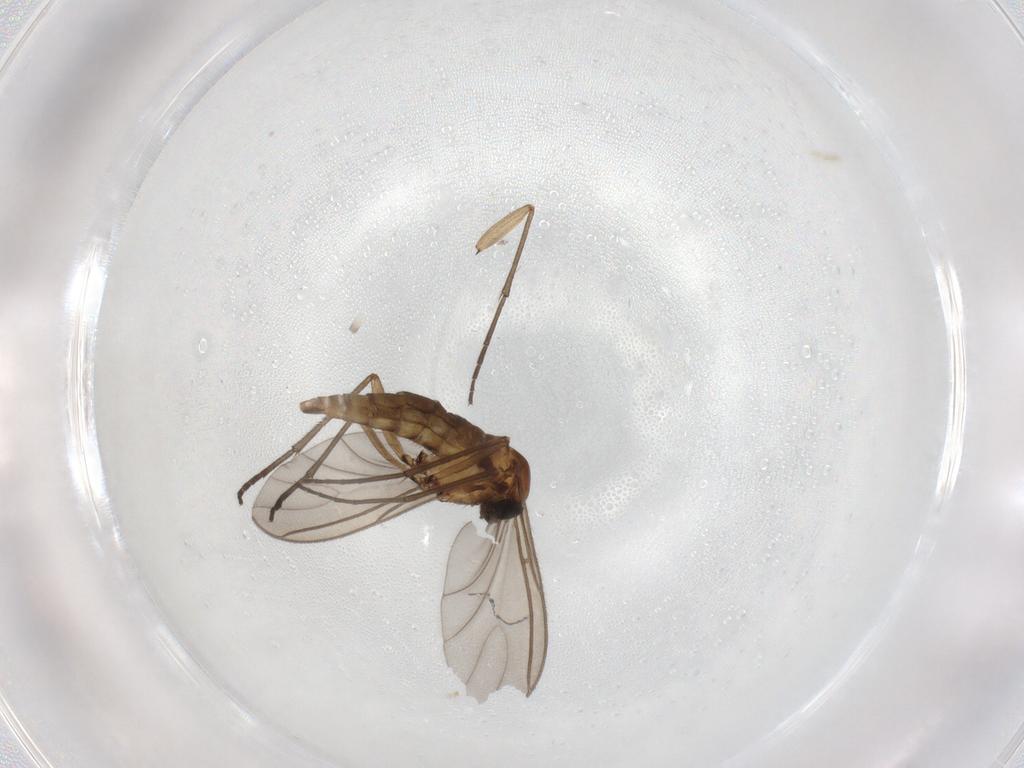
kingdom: Animalia
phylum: Arthropoda
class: Insecta
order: Diptera
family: Sciaridae
